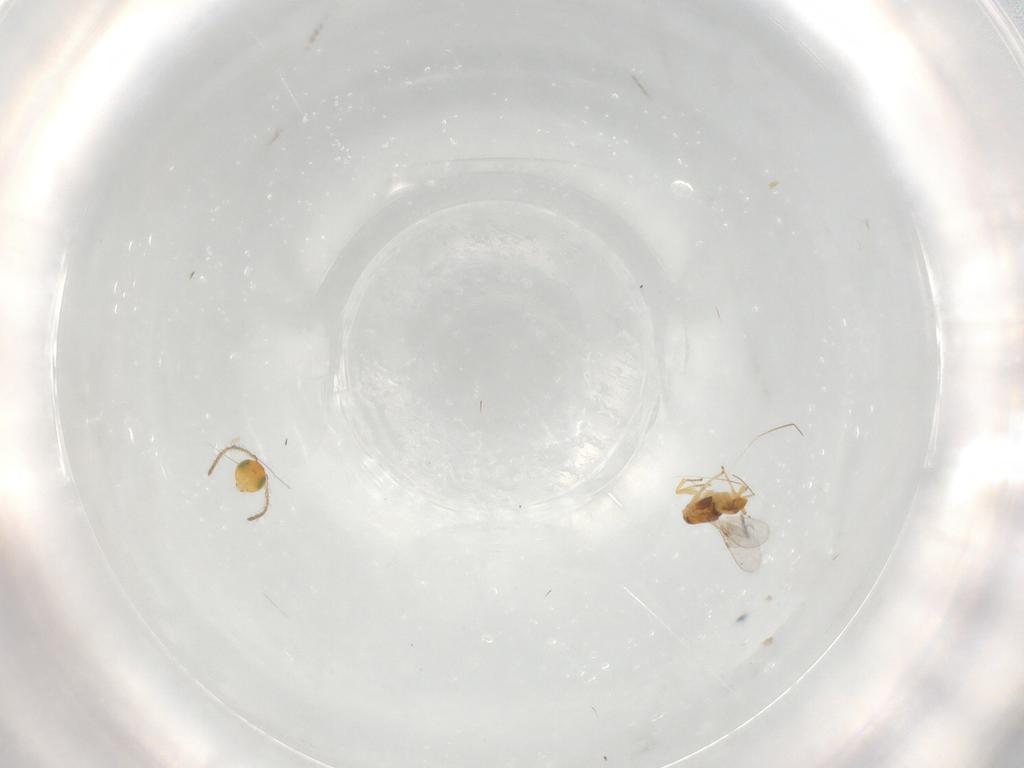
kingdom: Animalia
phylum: Arthropoda
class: Insecta
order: Hymenoptera
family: Encyrtidae
